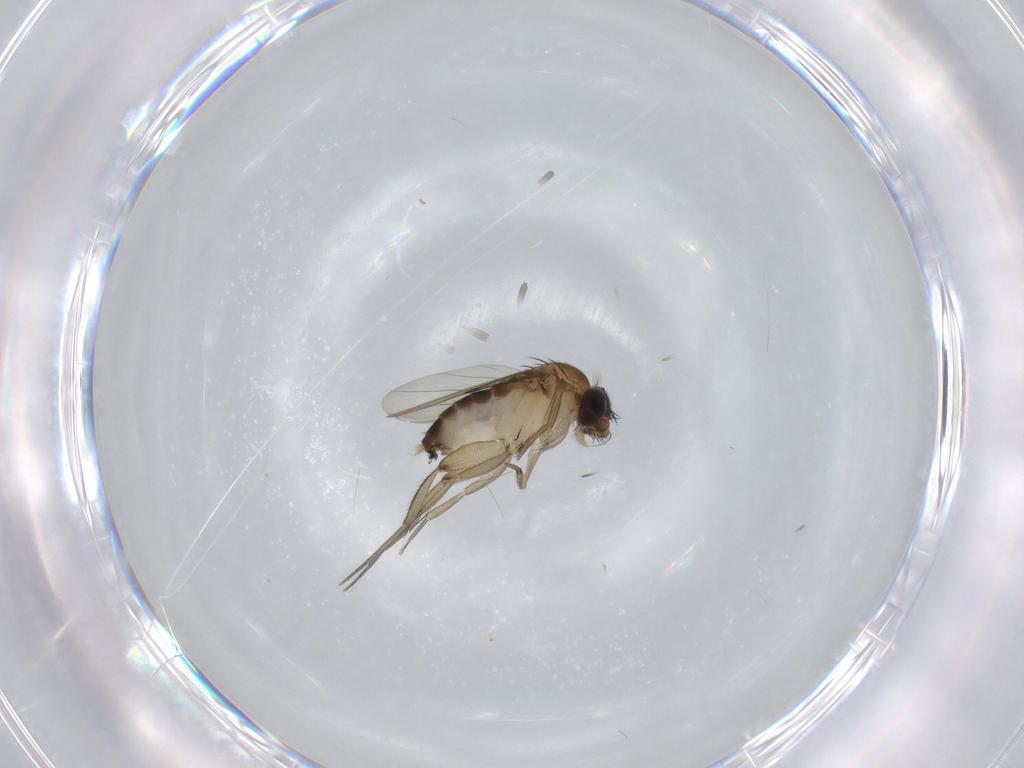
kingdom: Animalia
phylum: Arthropoda
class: Insecta
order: Diptera
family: Phoridae
